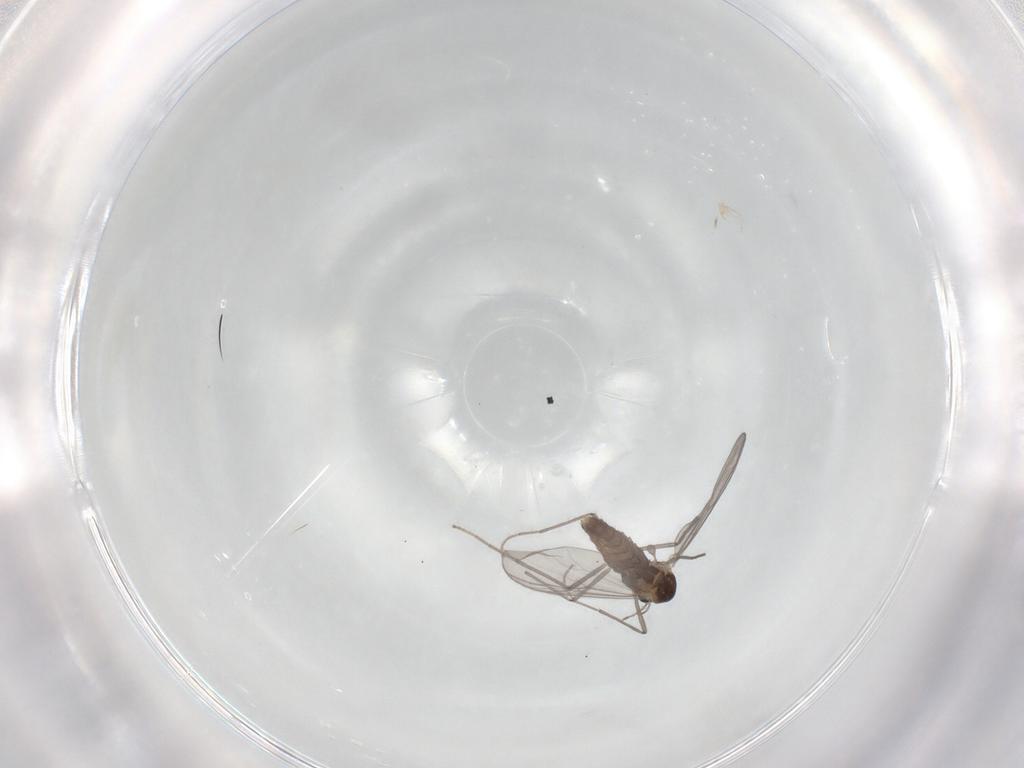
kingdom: Animalia
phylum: Arthropoda
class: Insecta
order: Diptera
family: Chironomidae
